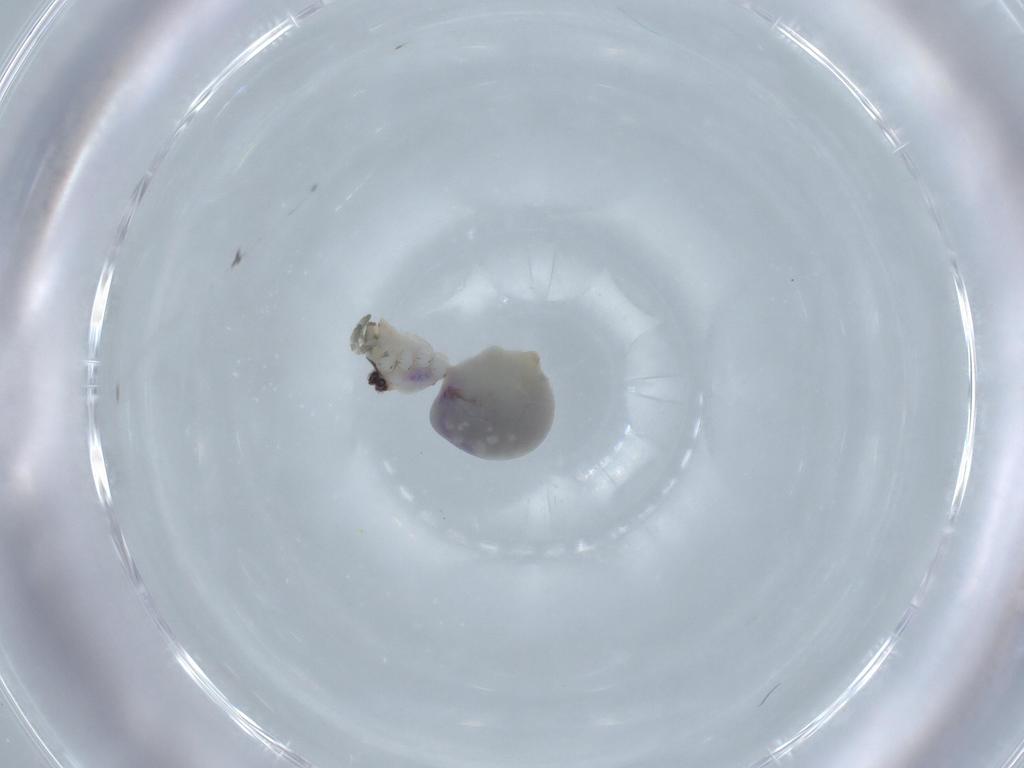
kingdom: Animalia
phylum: Arthropoda
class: Arachnida
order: Araneae
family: Pholcidae
